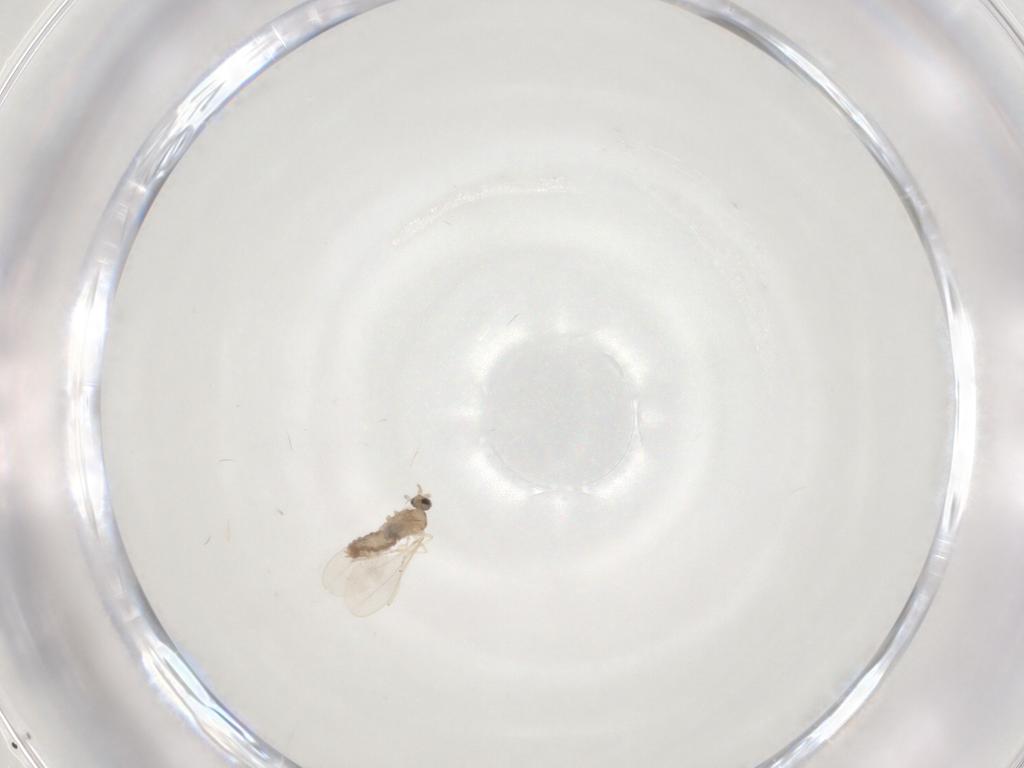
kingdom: Animalia
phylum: Arthropoda
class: Insecta
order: Diptera
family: Cecidomyiidae
